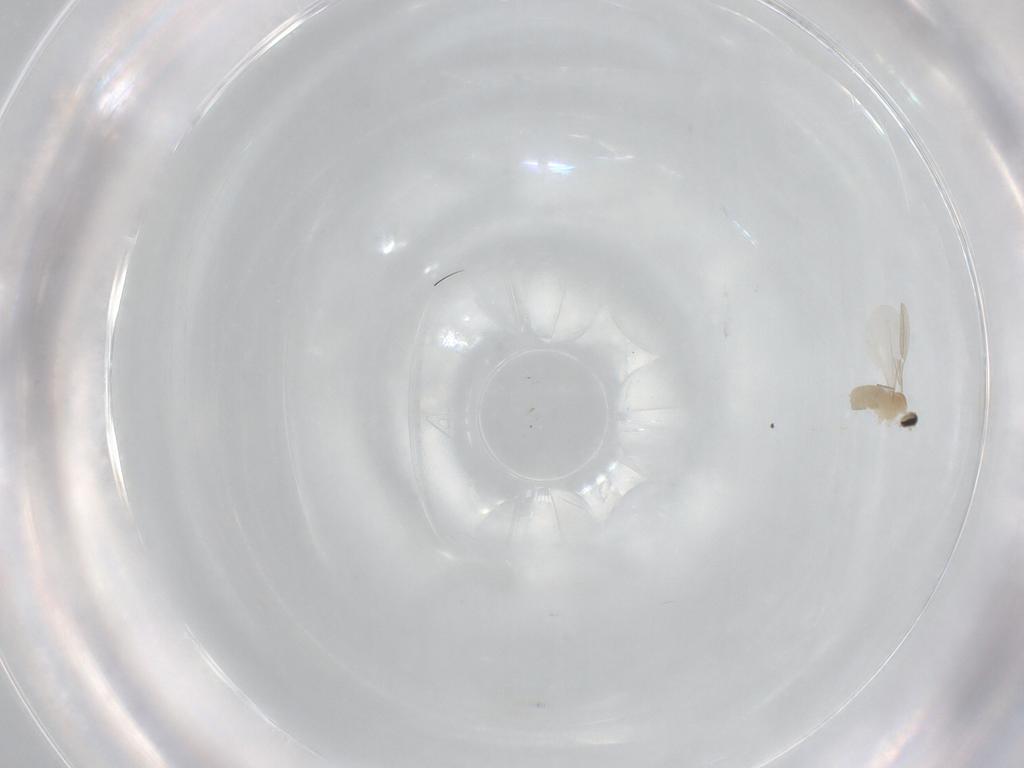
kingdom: Animalia
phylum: Arthropoda
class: Insecta
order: Diptera
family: Cecidomyiidae
